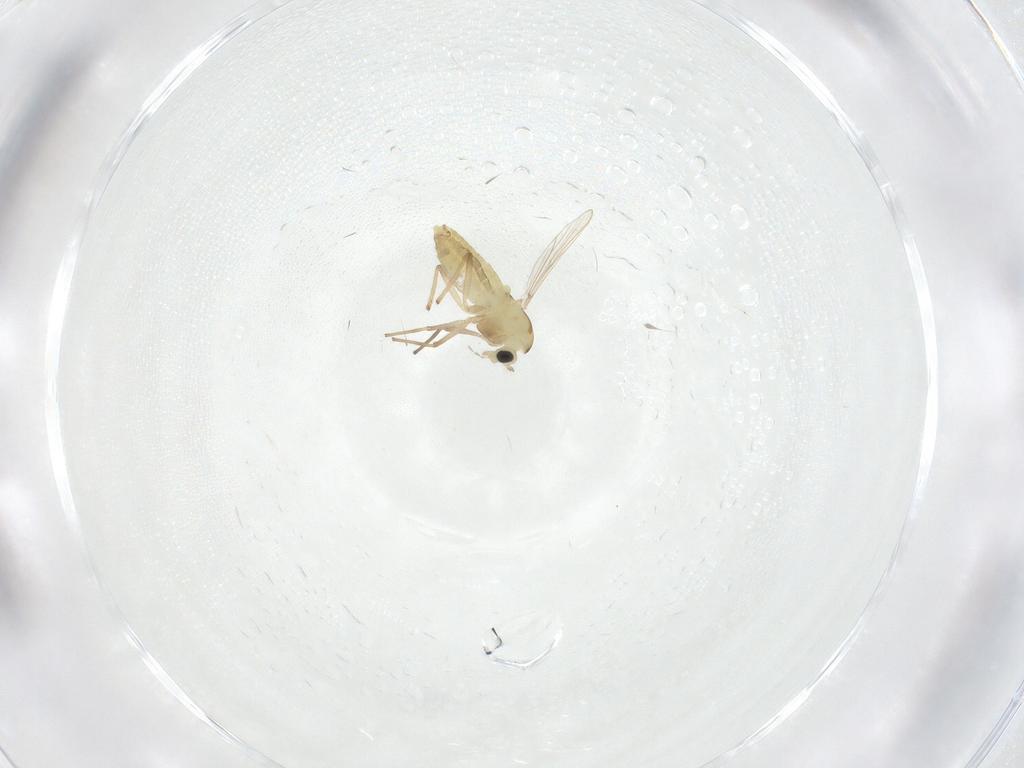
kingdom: Animalia
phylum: Arthropoda
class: Insecta
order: Diptera
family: Chironomidae
